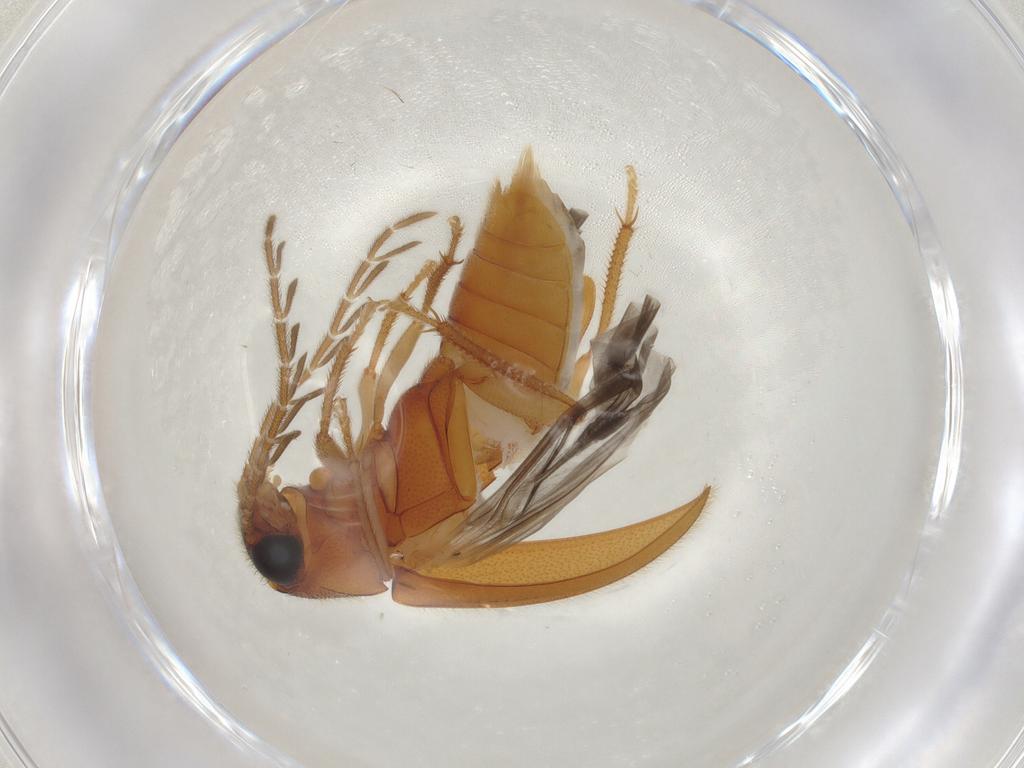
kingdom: Animalia
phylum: Arthropoda
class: Insecta
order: Coleoptera
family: Ptilodactylidae
